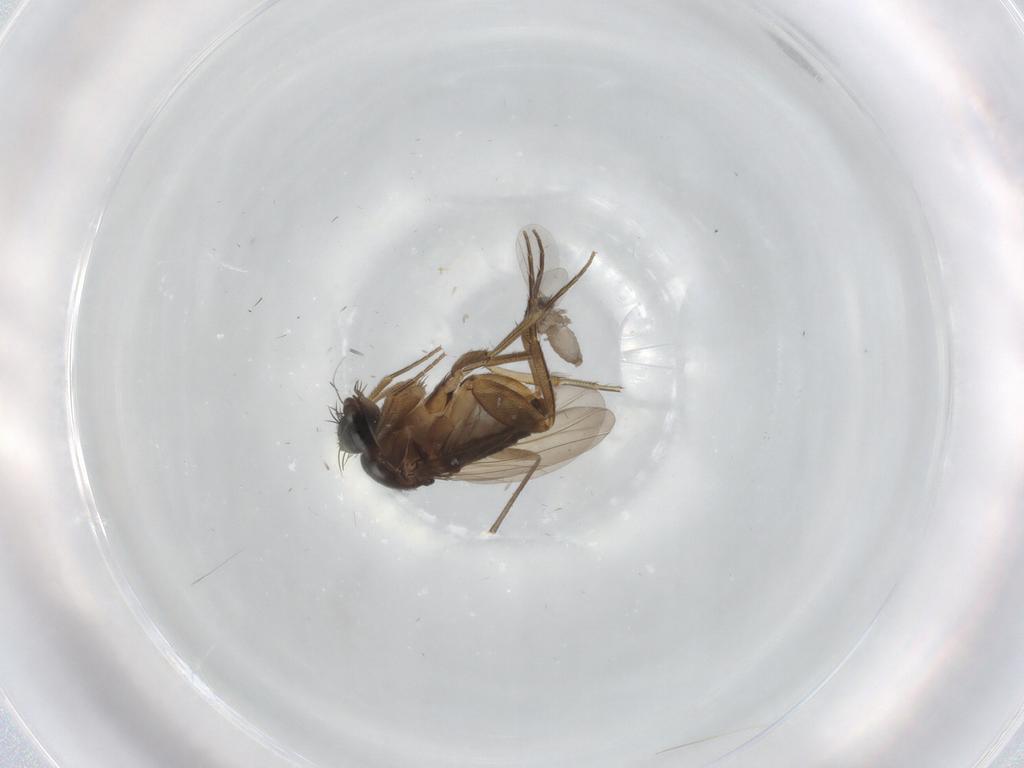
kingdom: Animalia
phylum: Arthropoda
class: Insecta
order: Diptera
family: Phoridae
